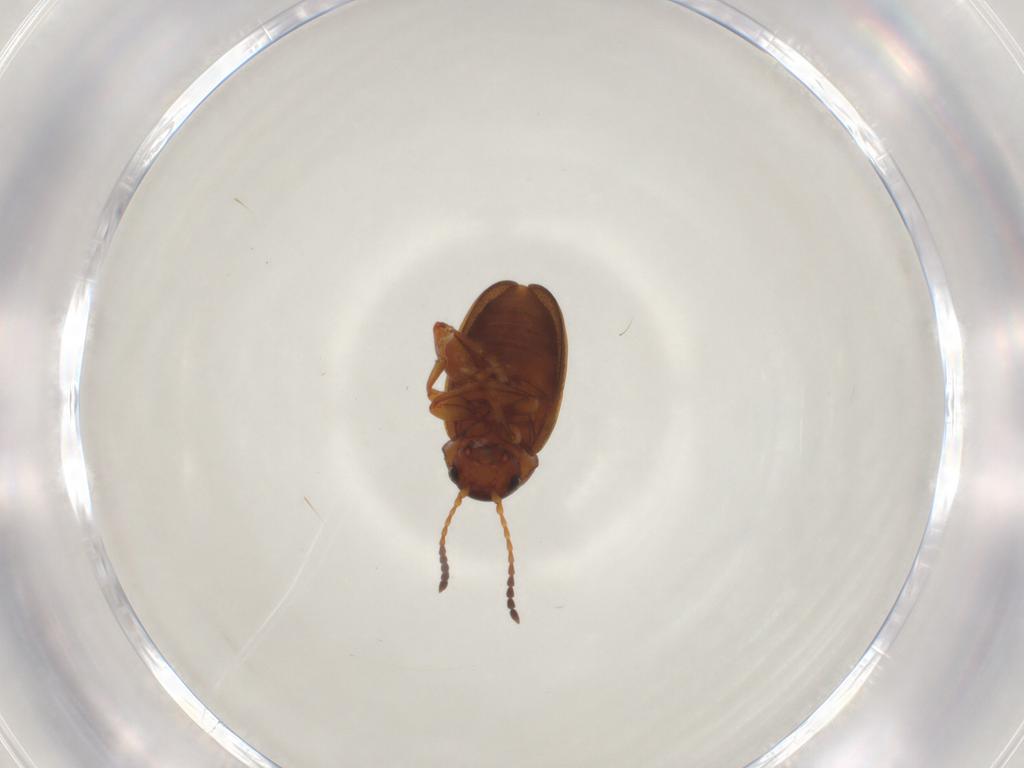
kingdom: Animalia
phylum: Arthropoda
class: Insecta
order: Coleoptera
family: Chrysomelidae
